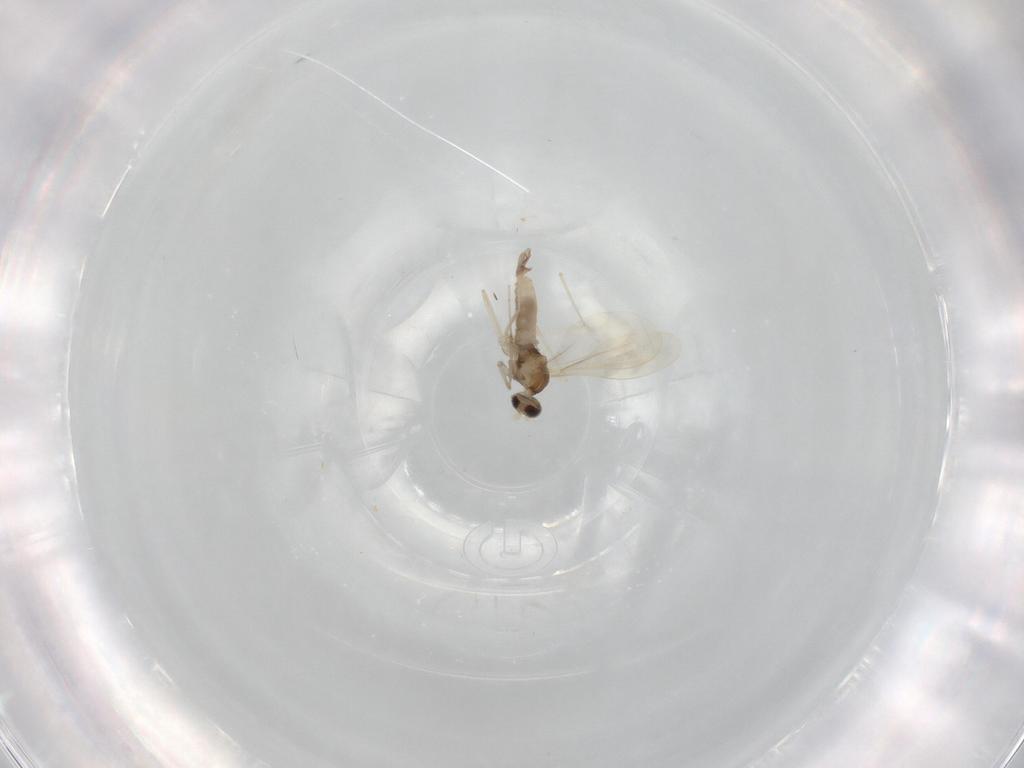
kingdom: Animalia
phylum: Arthropoda
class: Insecta
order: Diptera
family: Cecidomyiidae
